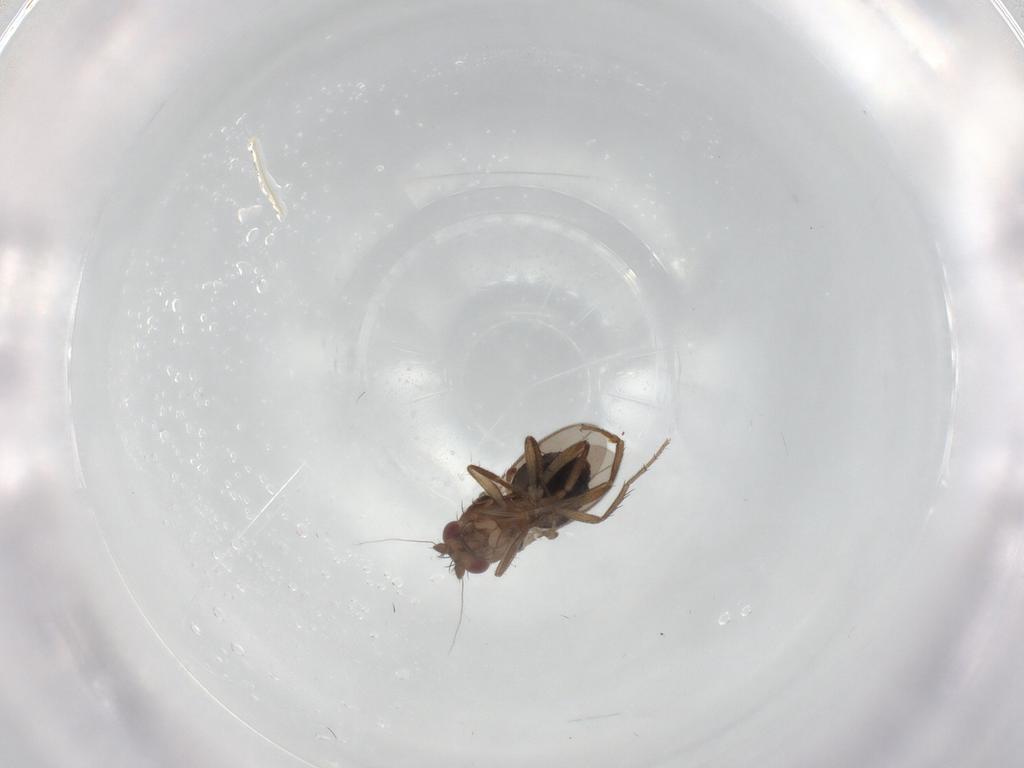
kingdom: Animalia
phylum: Arthropoda
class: Insecta
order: Diptera
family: Sphaeroceridae
